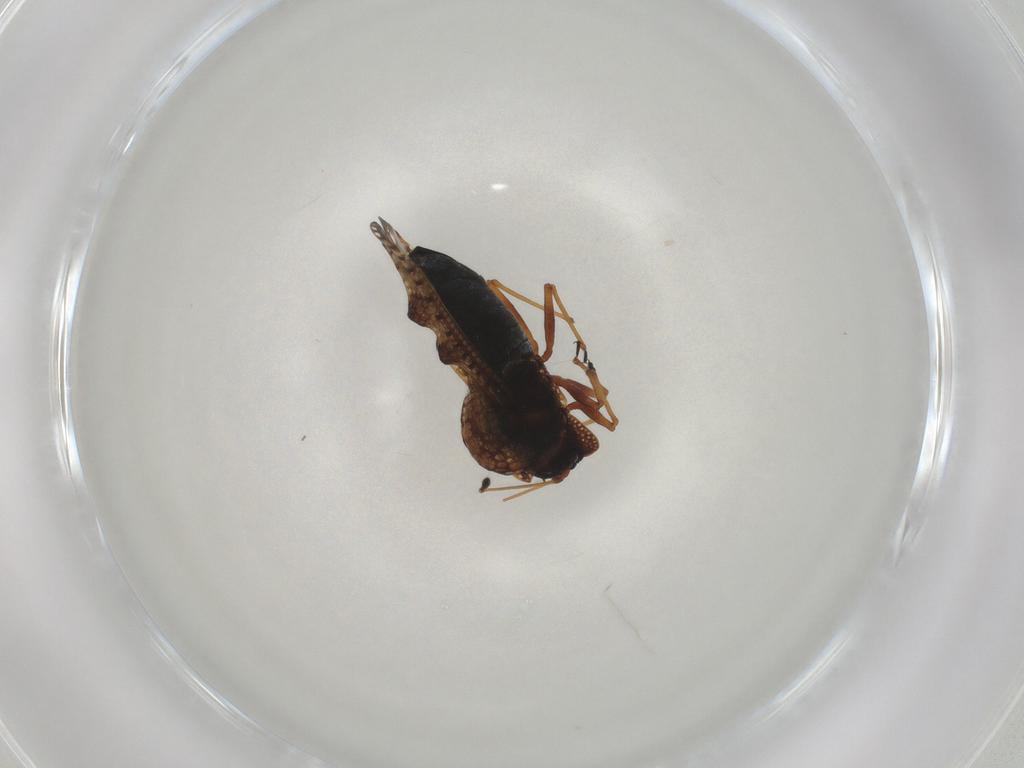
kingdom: Animalia
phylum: Arthropoda
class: Insecta
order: Hemiptera
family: Tingidae
